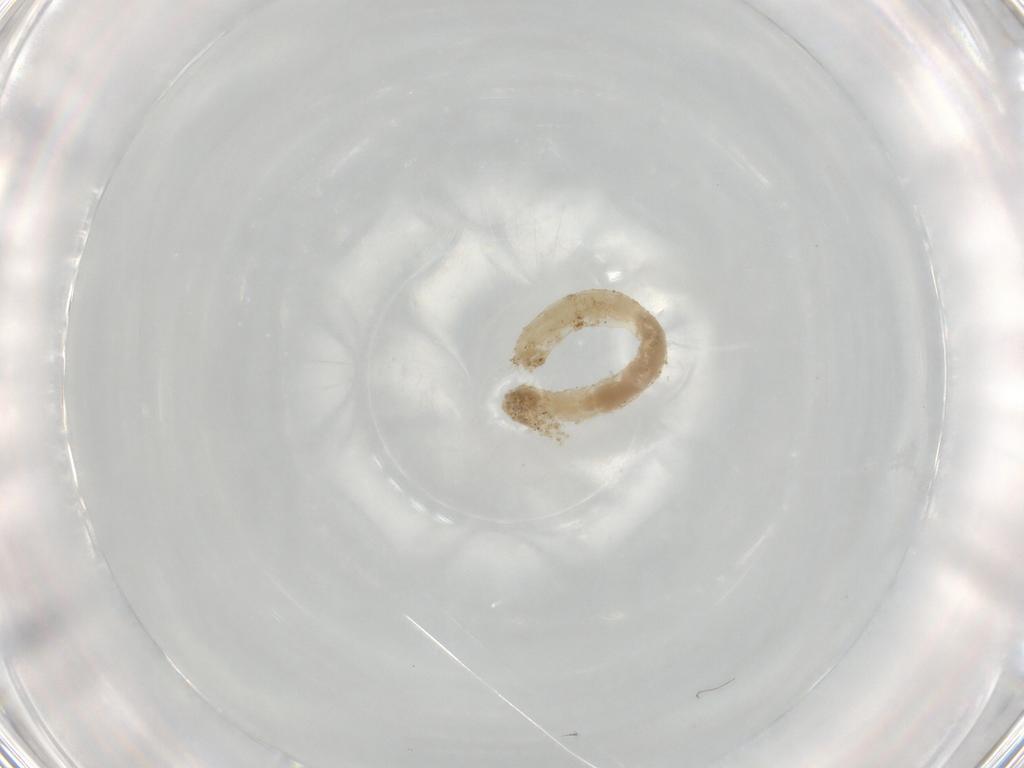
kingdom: Animalia
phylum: Arthropoda
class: Insecta
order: Diptera
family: Chironomidae
